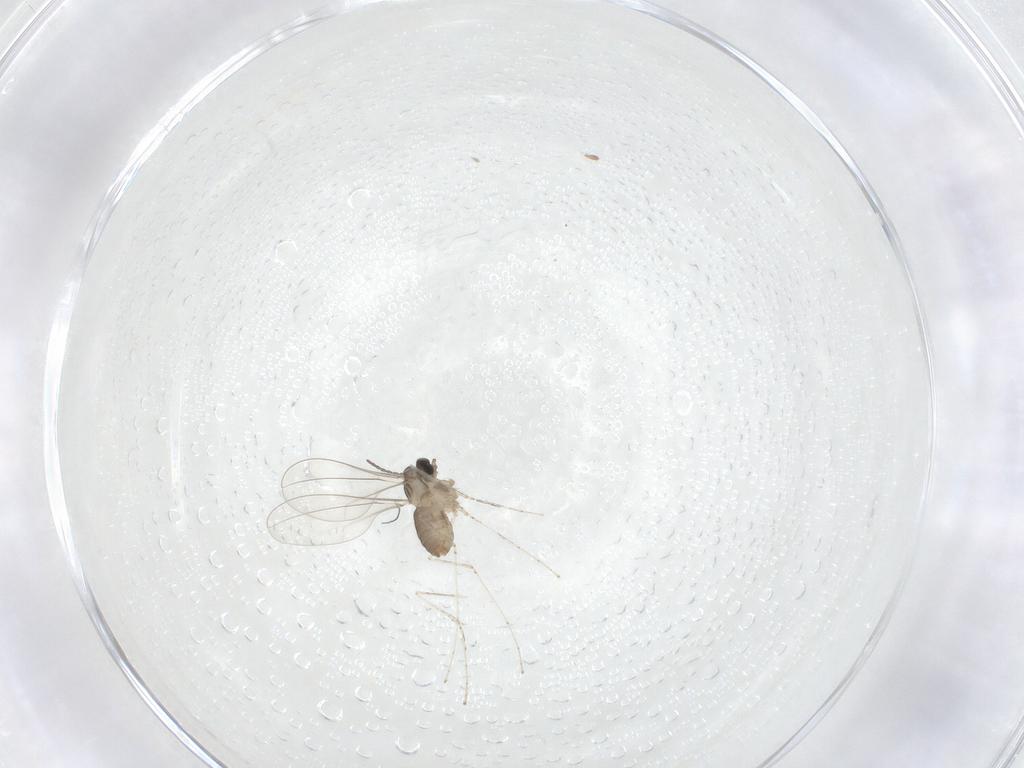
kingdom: Animalia
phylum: Arthropoda
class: Insecta
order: Diptera
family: Cecidomyiidae
